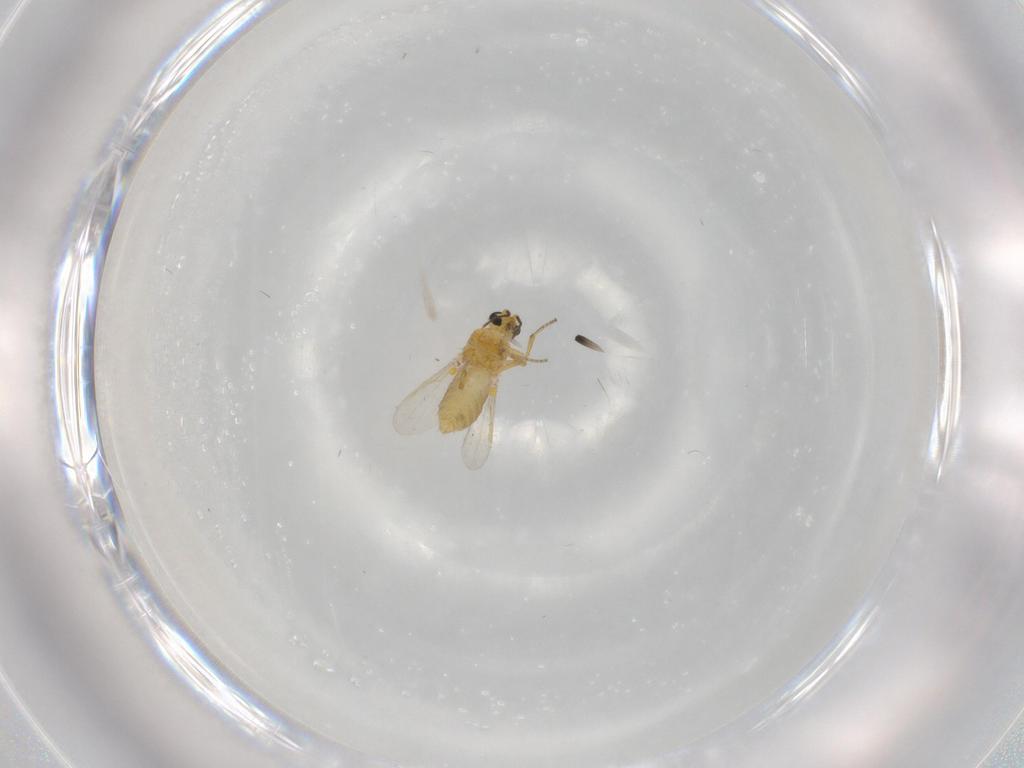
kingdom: Animalia
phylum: Arthropoda
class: Insecta
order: Diptera
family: Ceratopogonidae
